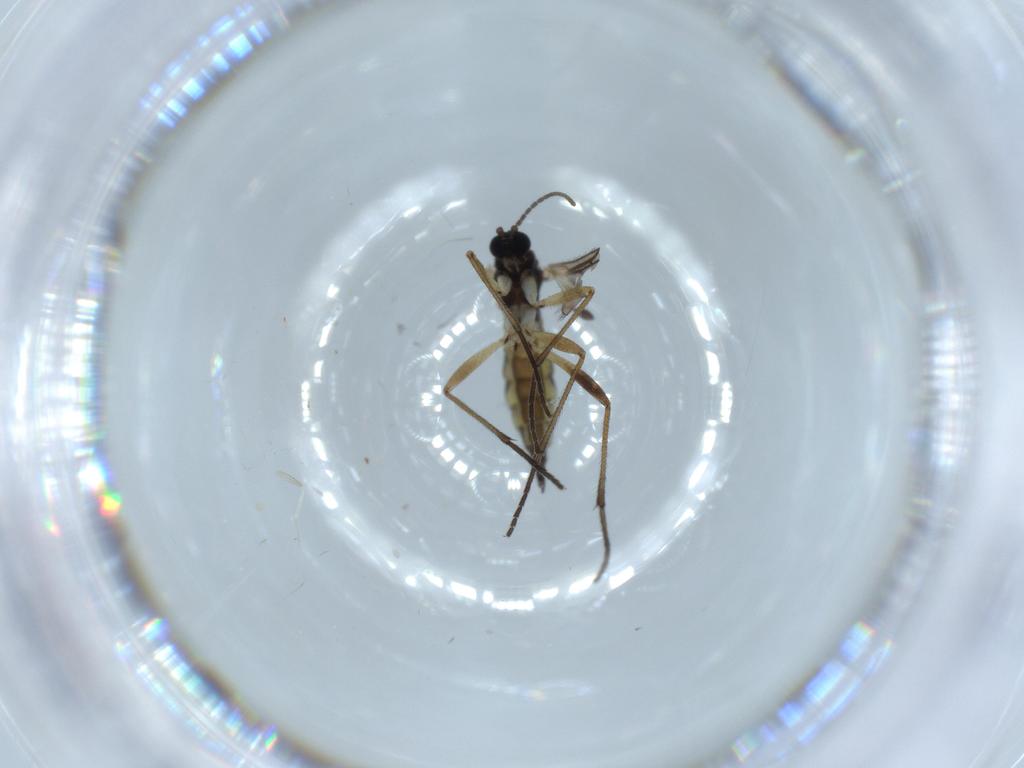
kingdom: Animalia
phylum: Arthropoda
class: Insecta
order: Diptera
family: Sciaridae
